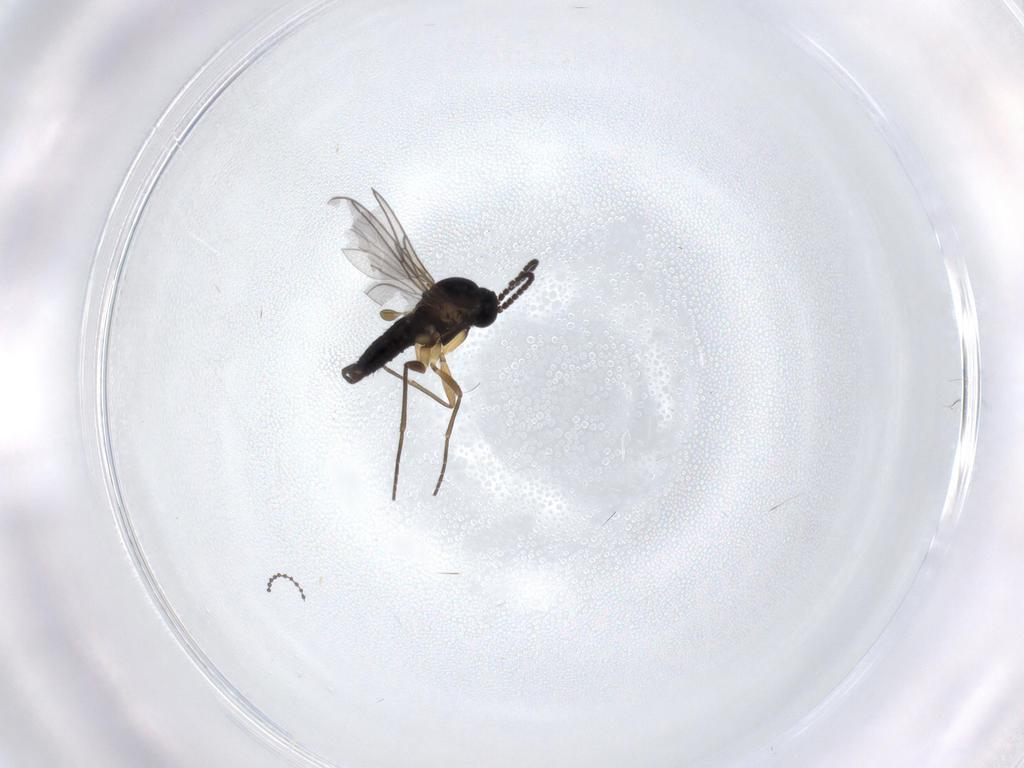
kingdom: Animalia
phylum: Arthropoda
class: Insecta
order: Diptera
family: Sciaridae
